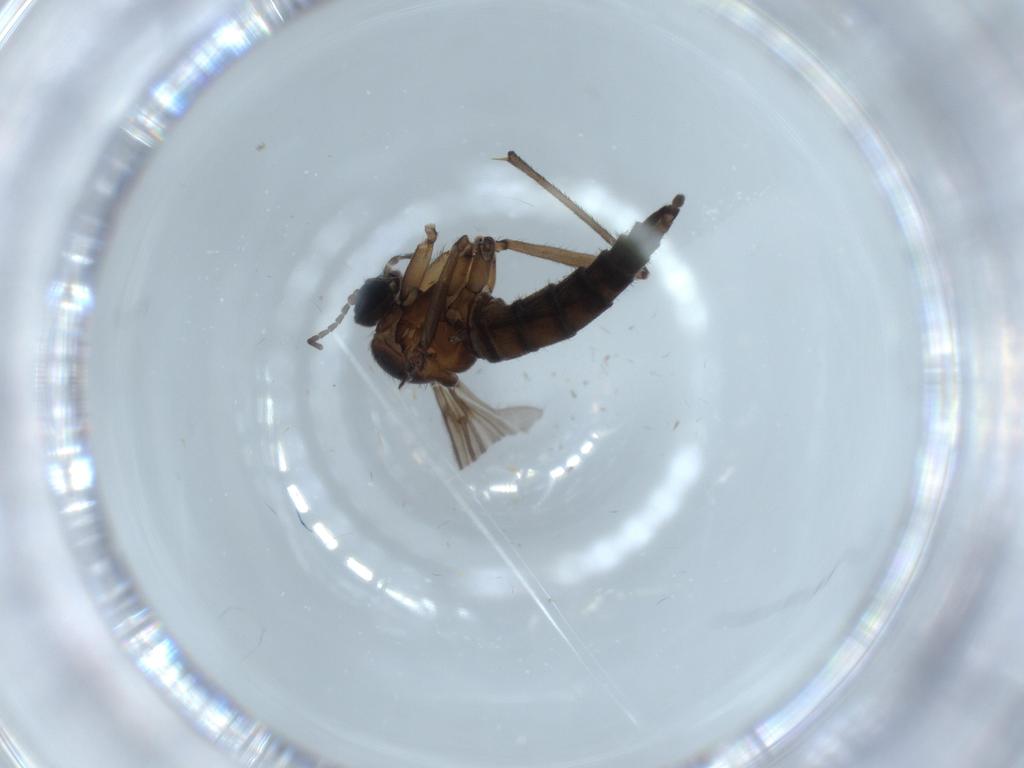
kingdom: Animalia
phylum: Arthropoda
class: Insecta
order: Diptera
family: Sciaridae
